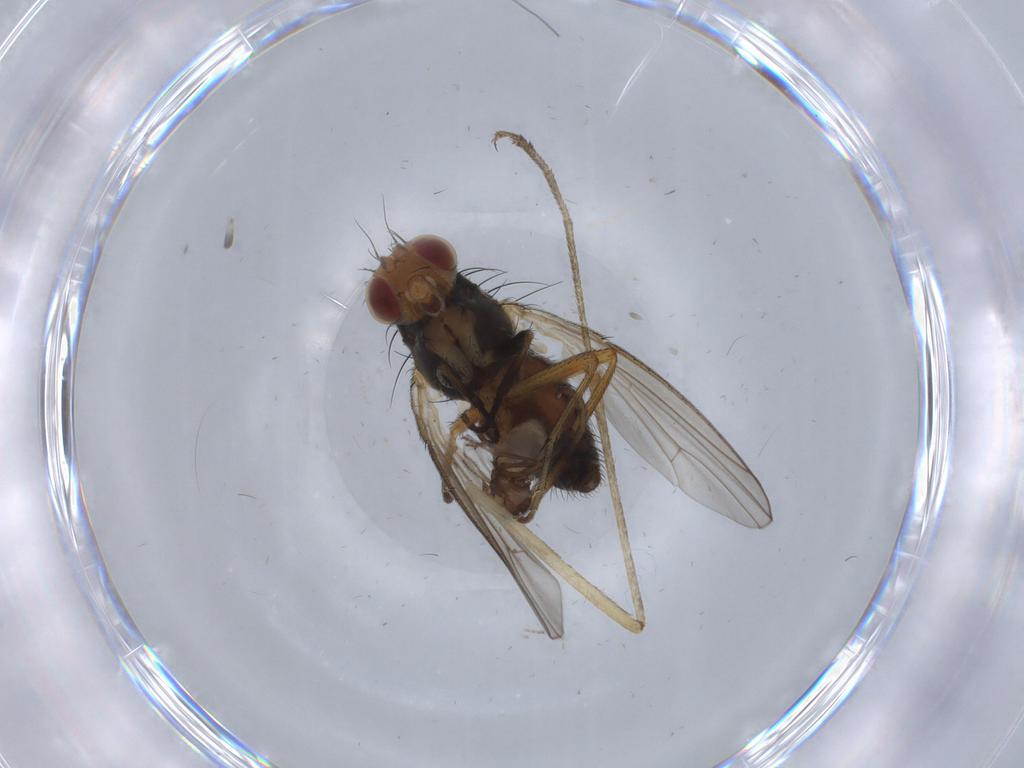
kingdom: Animalia
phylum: Arthropoda
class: Insecta
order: Diptera
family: Heleomyzidae
